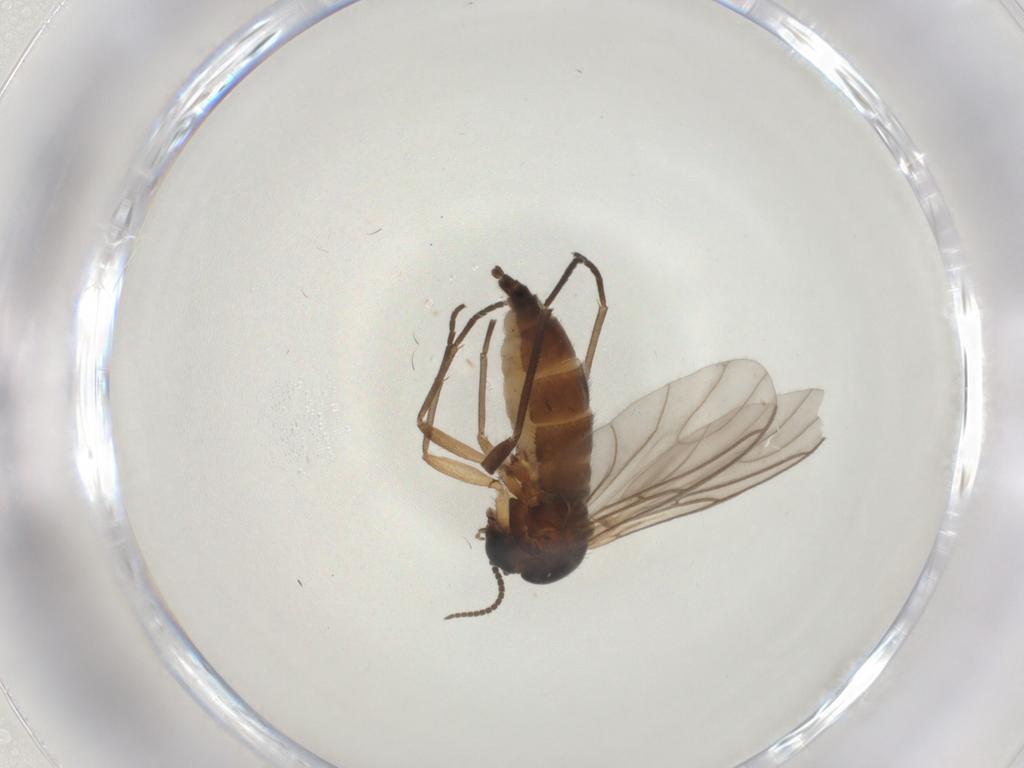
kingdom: Animalia
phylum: Arthropoda
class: Insecta
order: Diptera
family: Sciaridae
